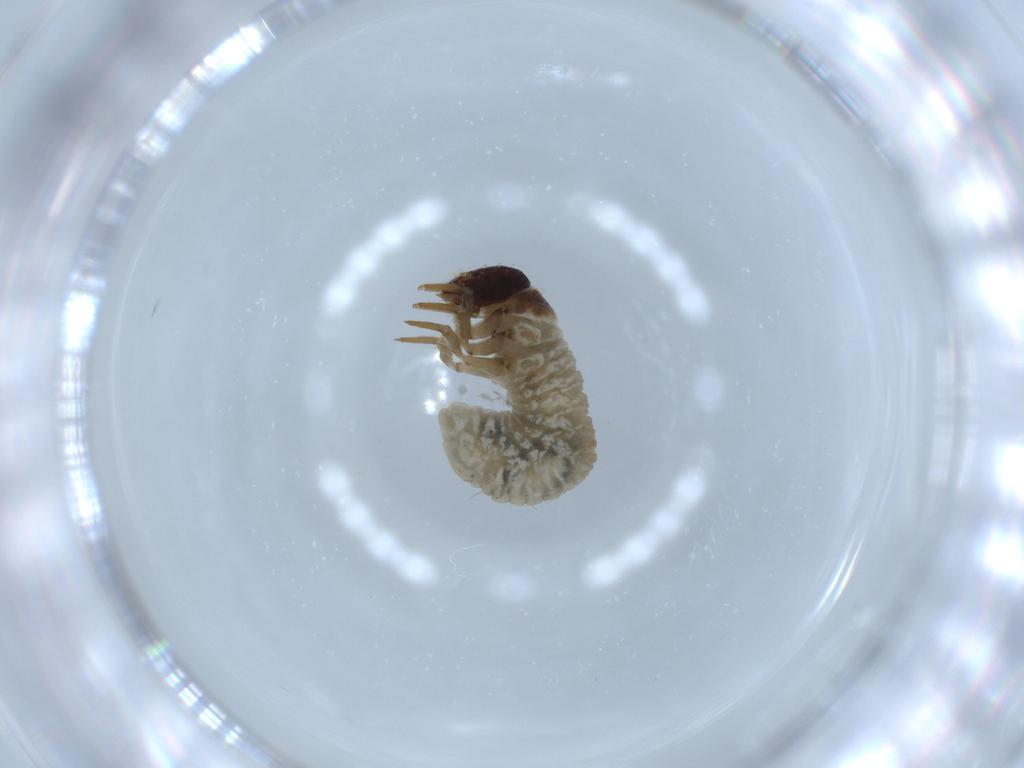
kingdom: Animalia
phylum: Arthropoda
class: Insecta
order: Coleoptera
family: Chrysomelidae
